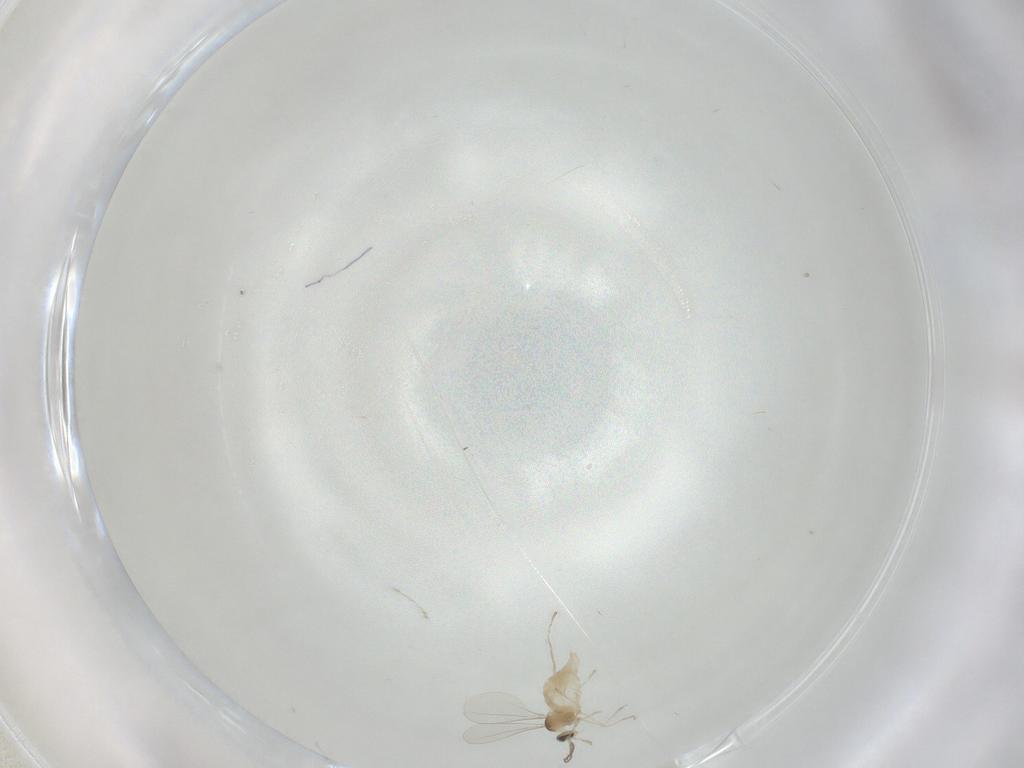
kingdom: Animalia
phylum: Arthropoda
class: Insecta
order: Diptera
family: Cecidomyiidae
